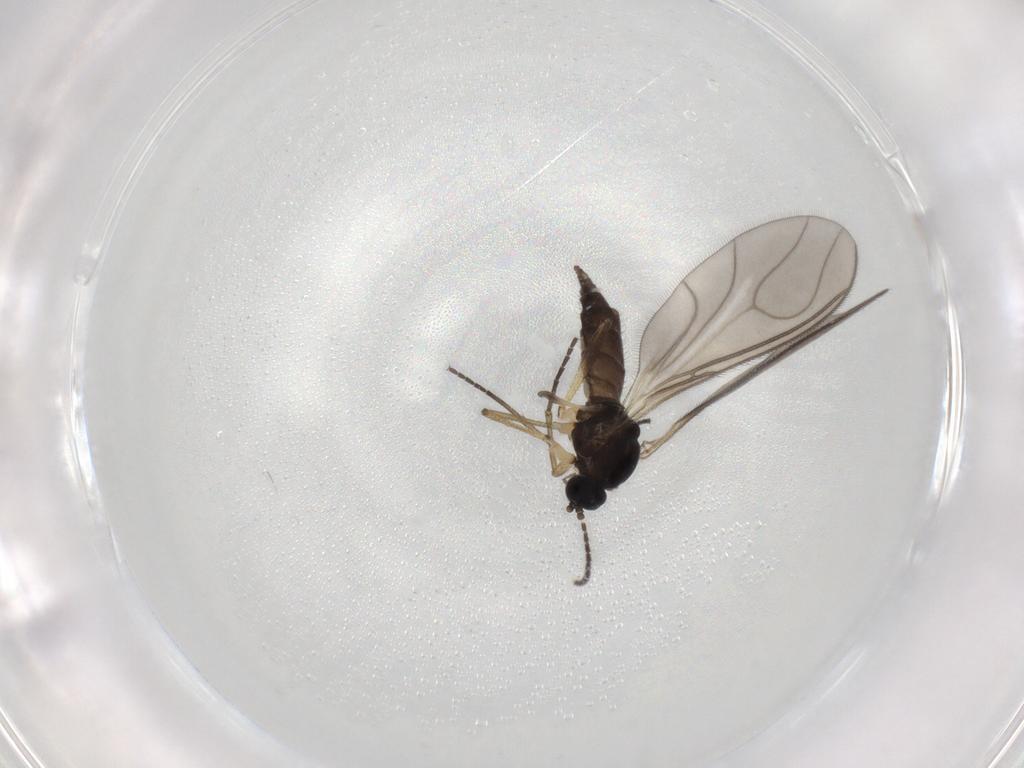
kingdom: Animalia
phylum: Arthropoda
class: Insecta
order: Diptera
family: Sciaridae
